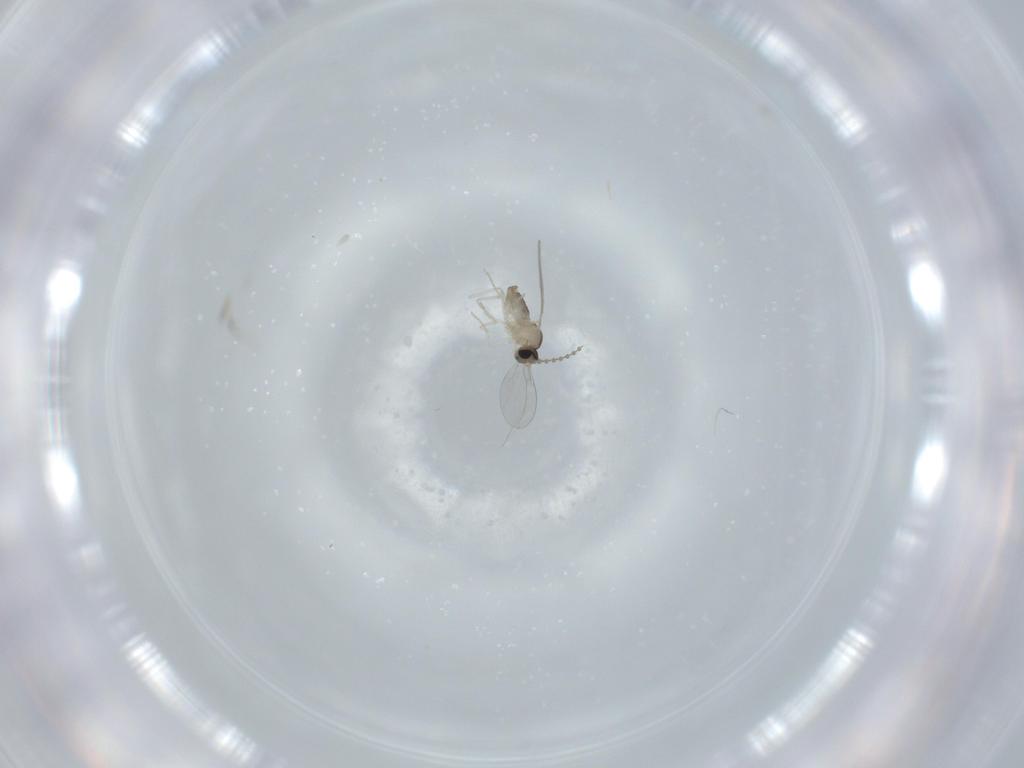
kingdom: Animalia
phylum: Arthropoda
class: Insecta
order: Diptera
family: Cecidomyiidae
